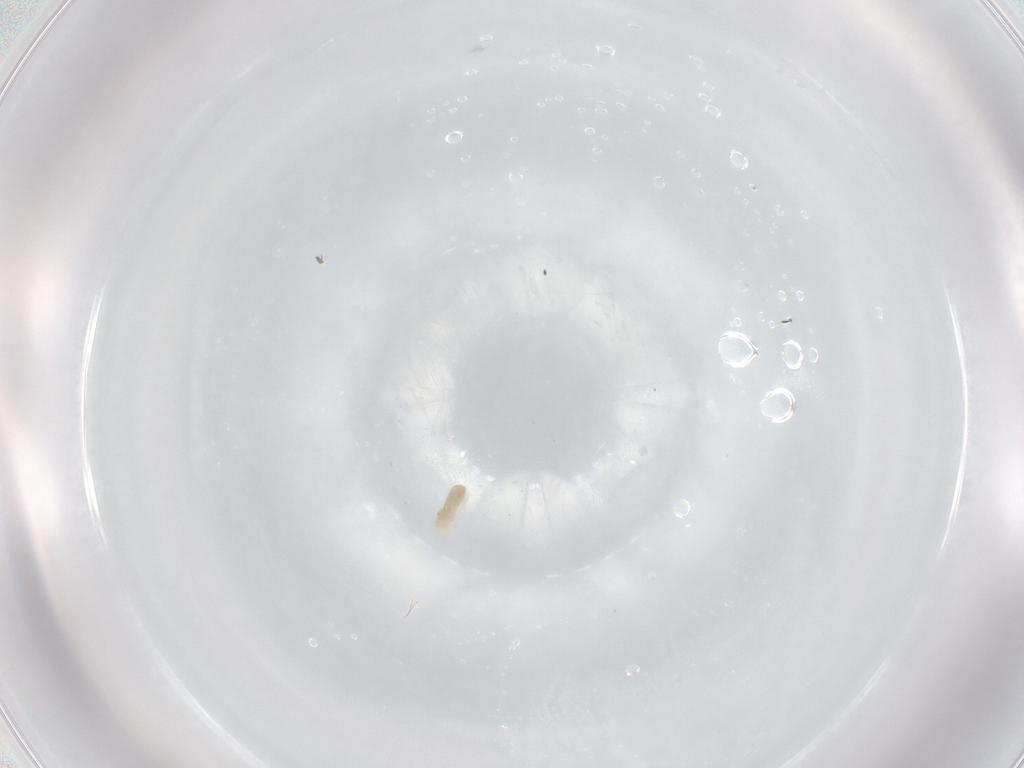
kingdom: Animalia
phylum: Arthropoda
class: Arachnida
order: Trombidiformes
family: Eupodidae
